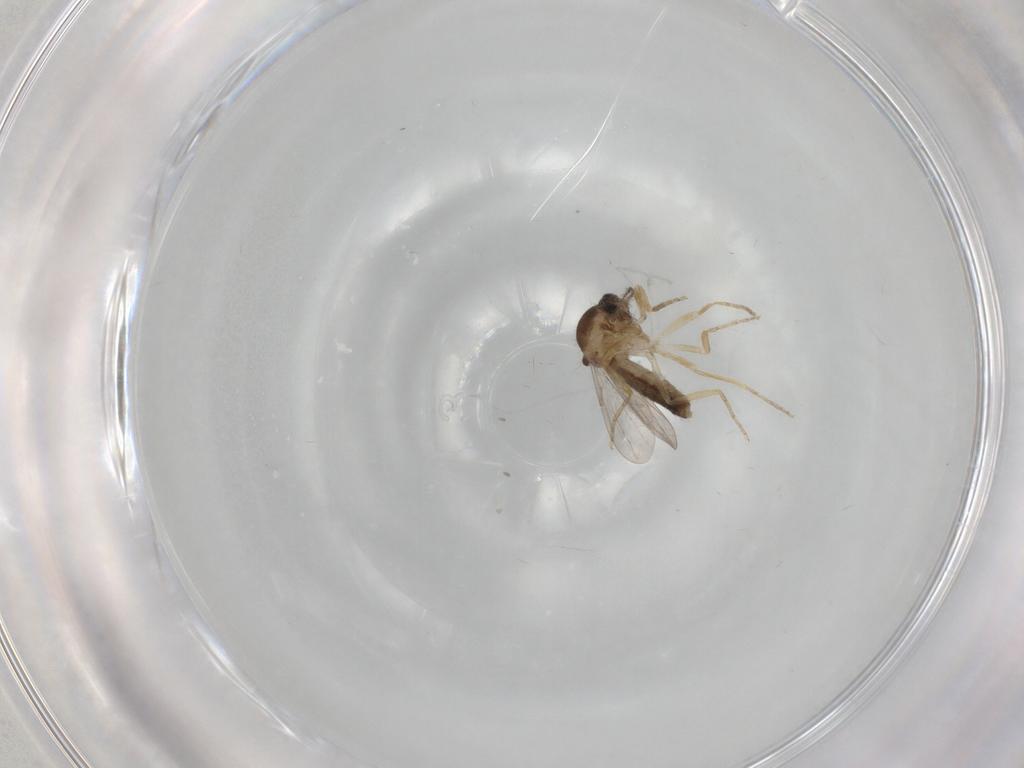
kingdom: Animalia
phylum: Arthropoda
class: Insecta
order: Diptera
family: Ceratopogonidae
